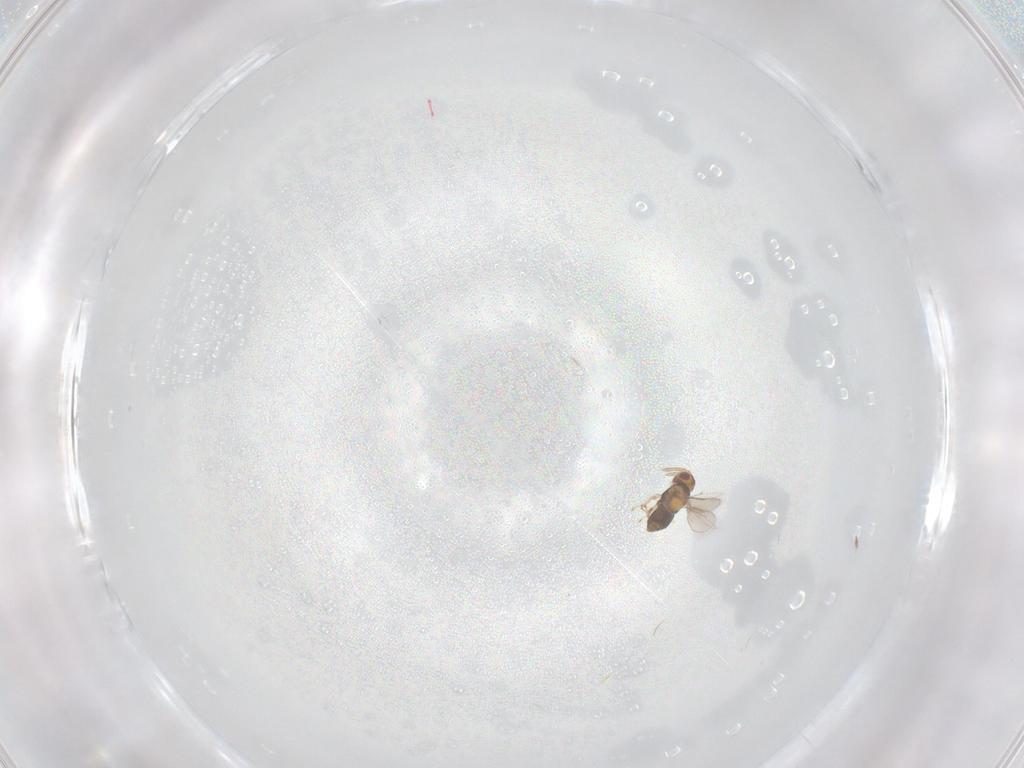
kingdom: Animalia
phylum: Arthropoda
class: Insecta
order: Hymenoptera
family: Aphelinidae
